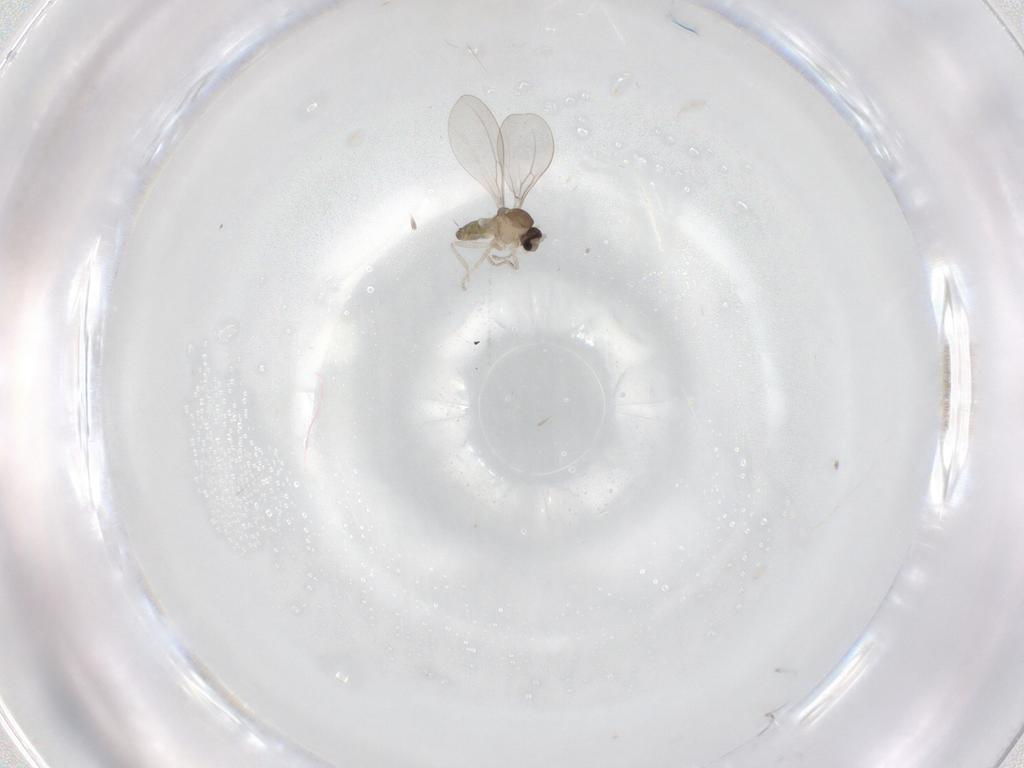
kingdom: Animalia
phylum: Arthropoda
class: Insecta
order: Diptera
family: Cecidomyiidae
